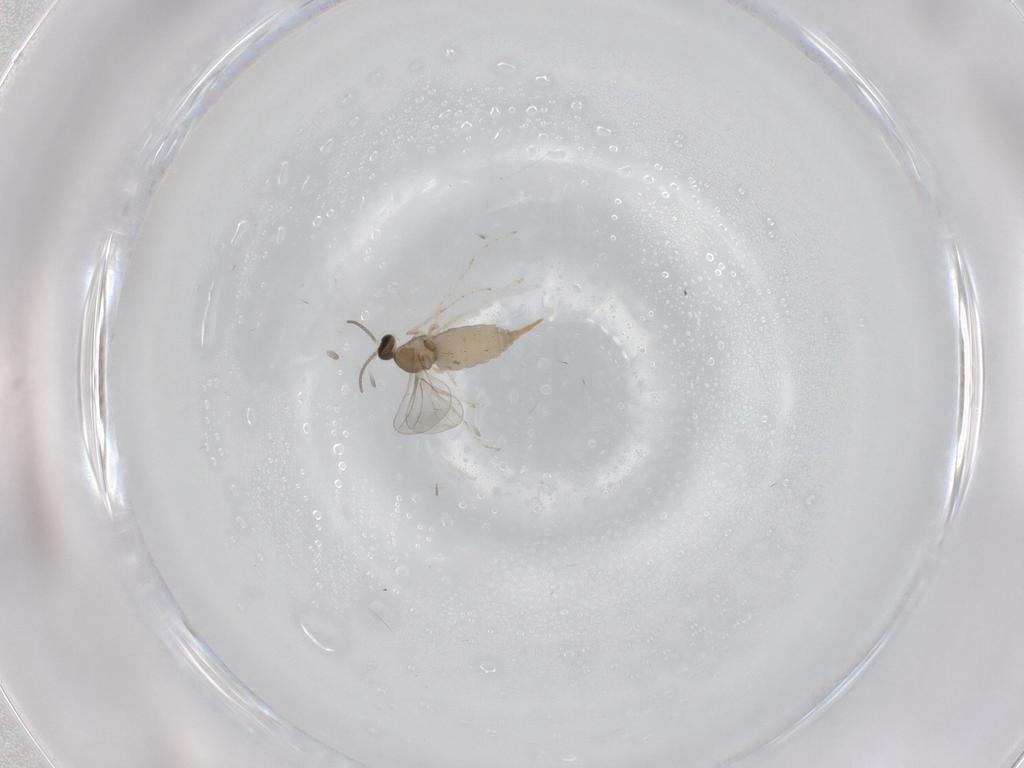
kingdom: Animalia
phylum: Arthropoda
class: Insecta
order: Diptera
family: Cecidomyiidae
